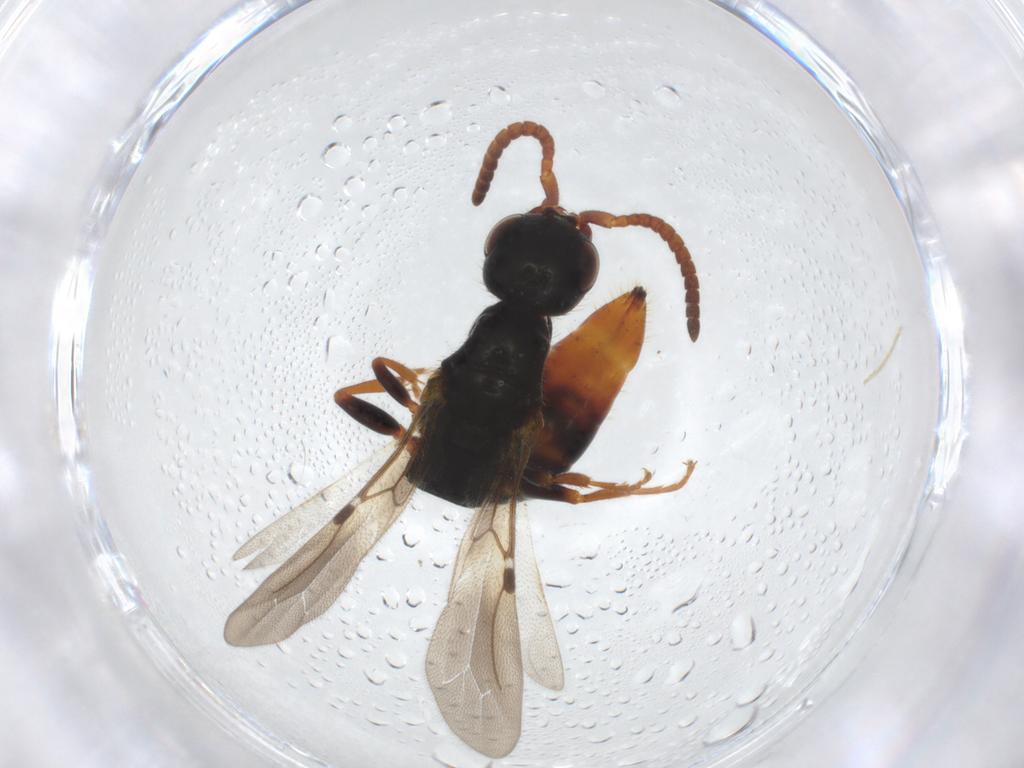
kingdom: Animalia
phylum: Arthropoda
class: Insecta
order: Hymenoptera
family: Bethylidae
